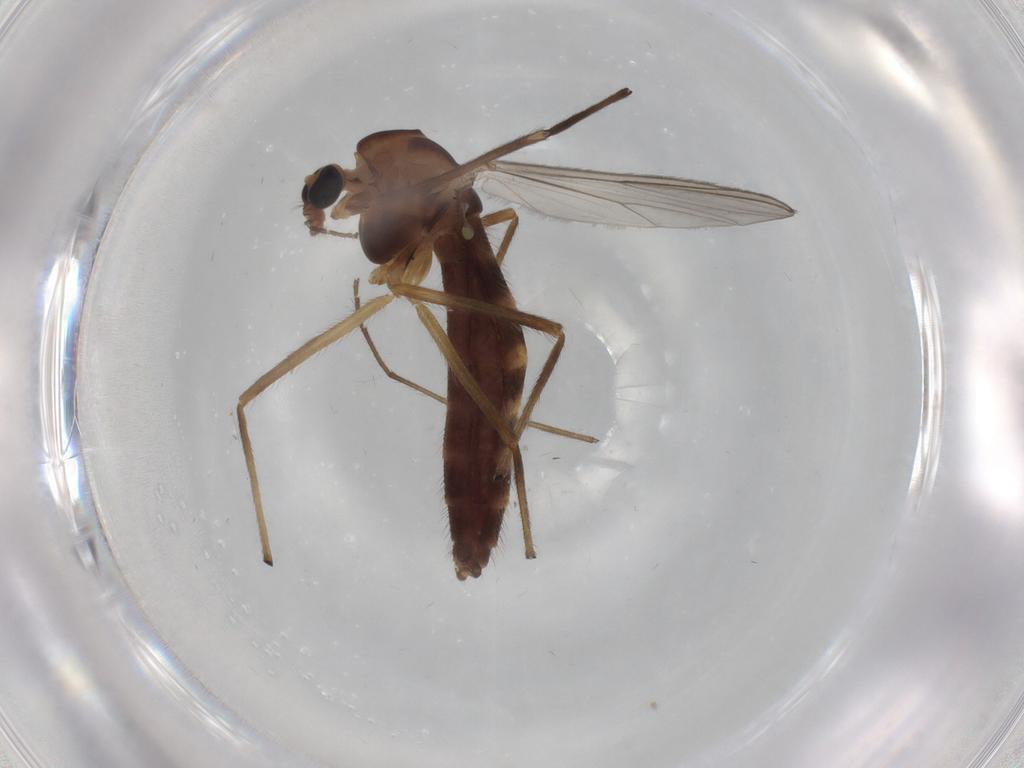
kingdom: Animalia
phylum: Arthropoda
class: Insecta
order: Diptera
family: Chironomidae
